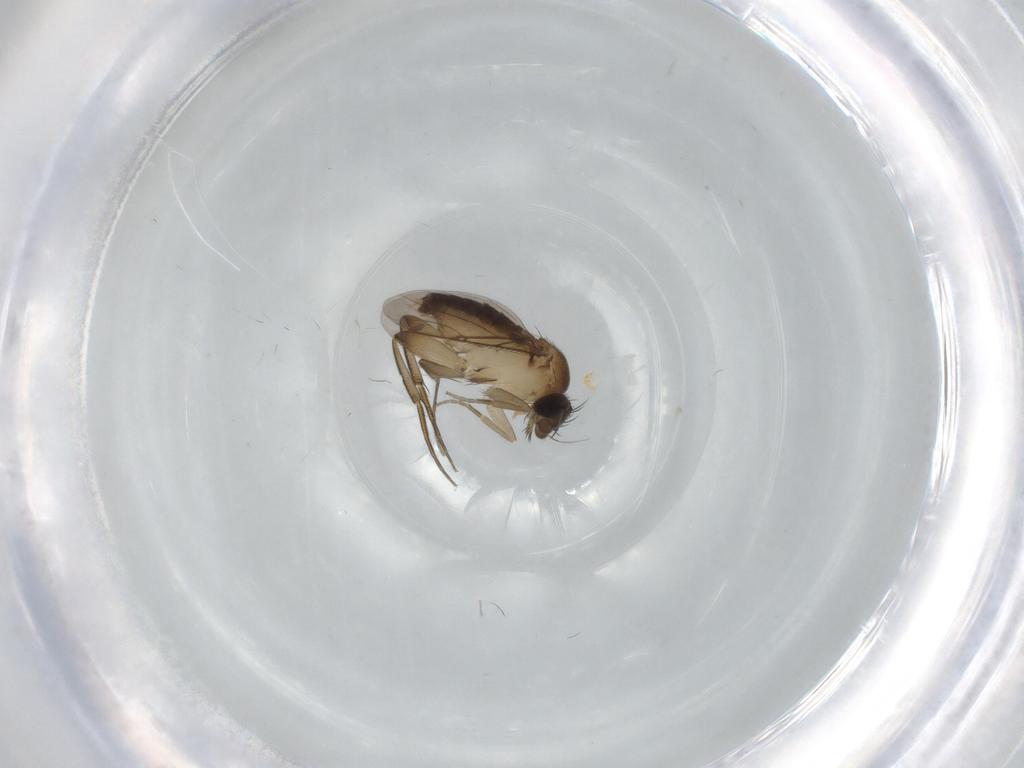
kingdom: Animalia
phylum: Arthropoda
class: Insecta
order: Diptera
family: Phoridae
